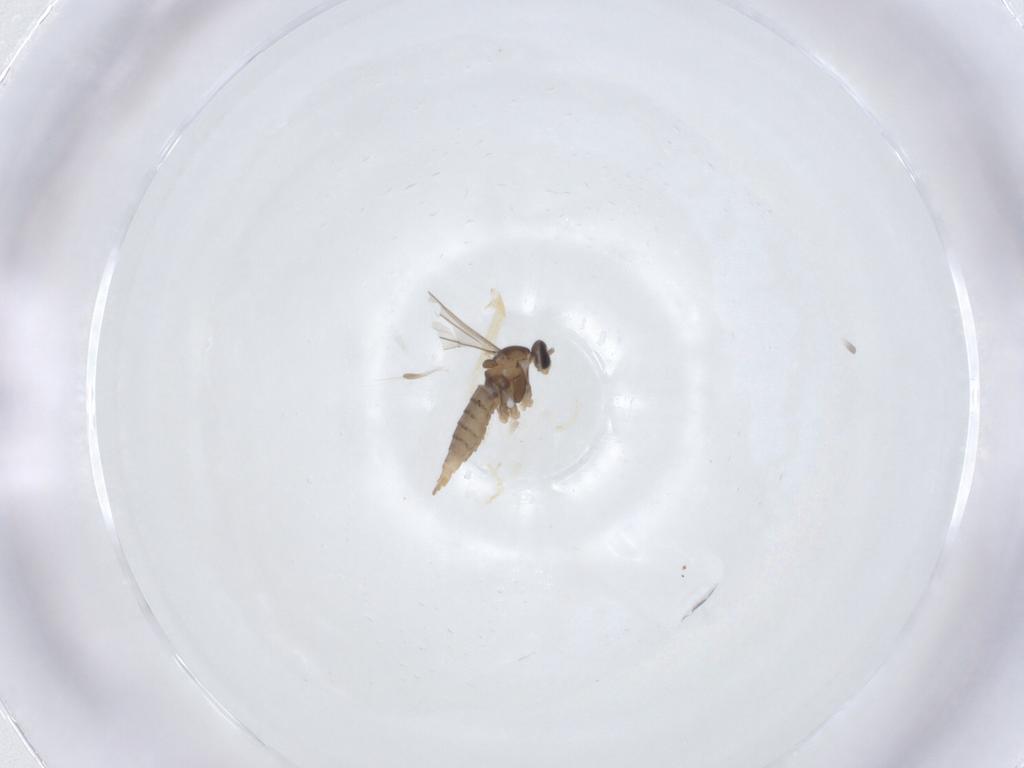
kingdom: Animalia
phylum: Arthropoda
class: Insecta
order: Diptera
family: Cecidomyiidae
